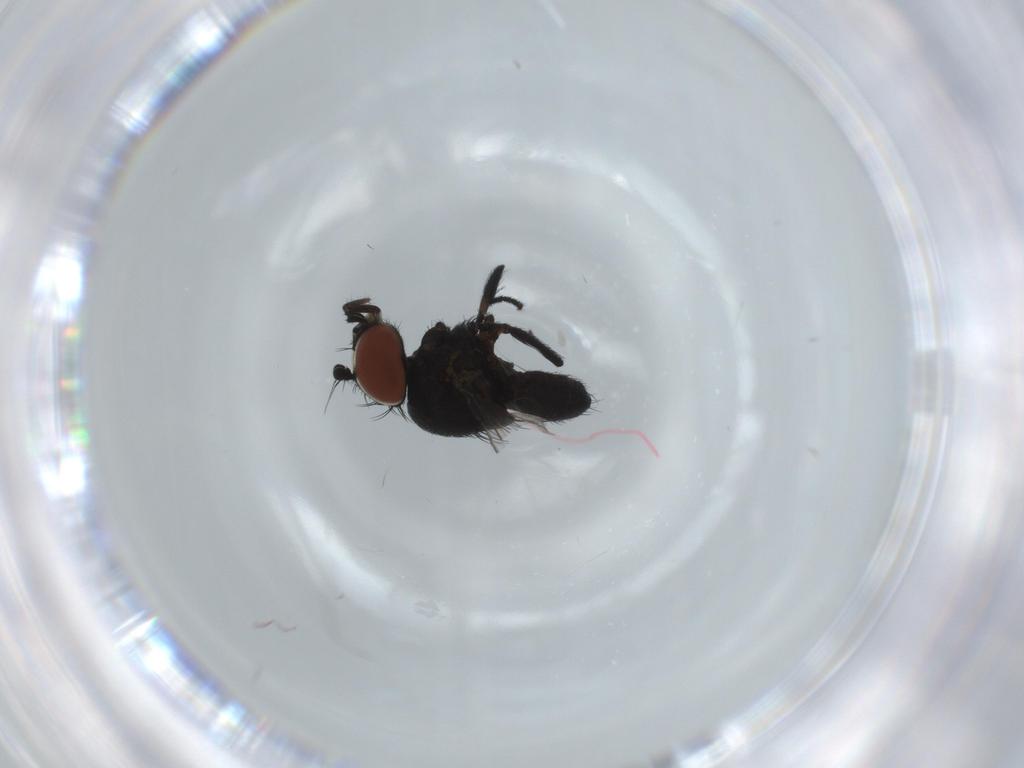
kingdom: Animalia
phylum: Arthropoda
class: Insecta
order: Diptera
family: Milichiidae
